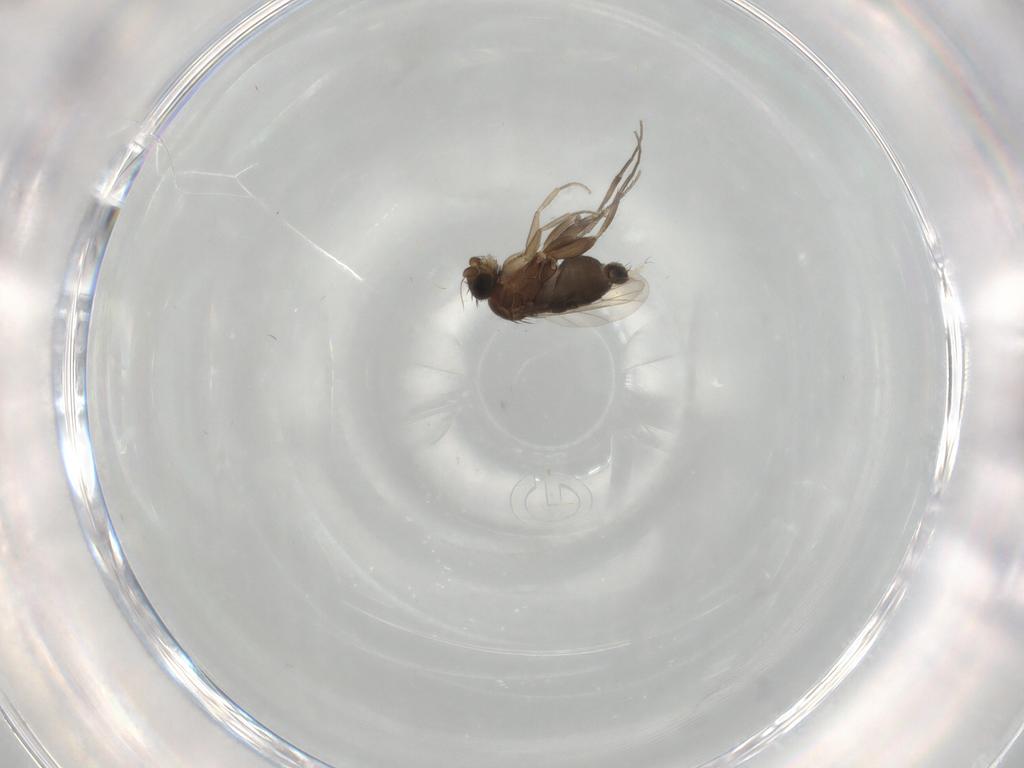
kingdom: Animalia
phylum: Arthropoda
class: Insecta
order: Diptera
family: Phoridae
